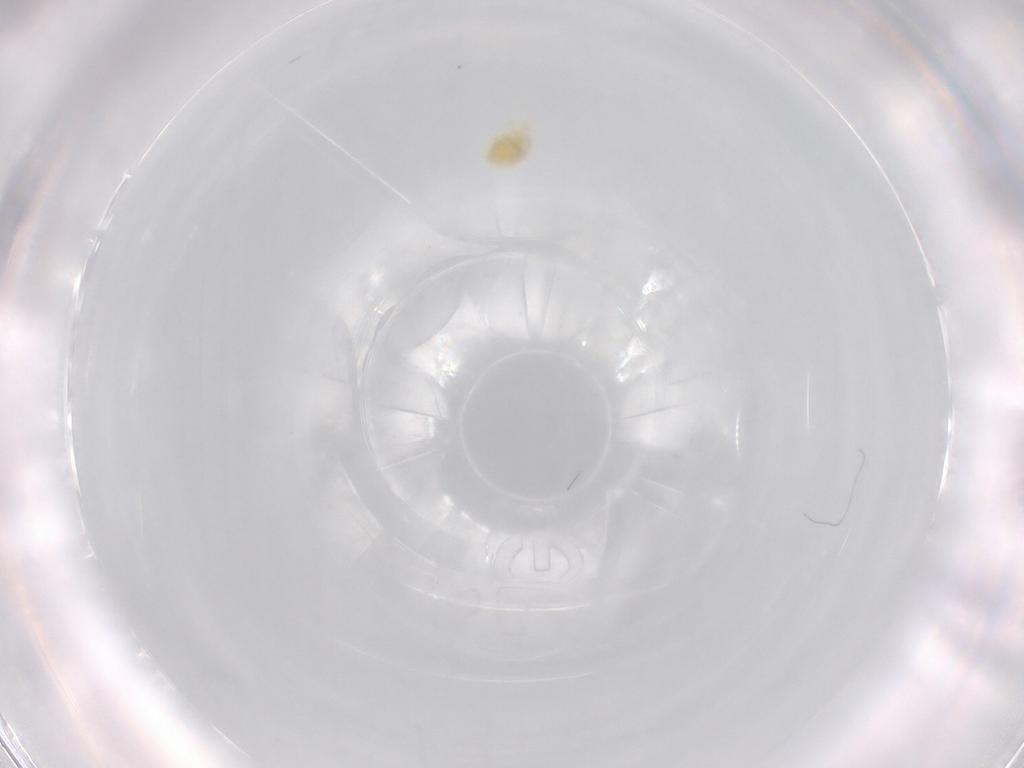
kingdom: Animalia
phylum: Arthropoda
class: Arachnida
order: Trombidiformes
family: Eupodidae
